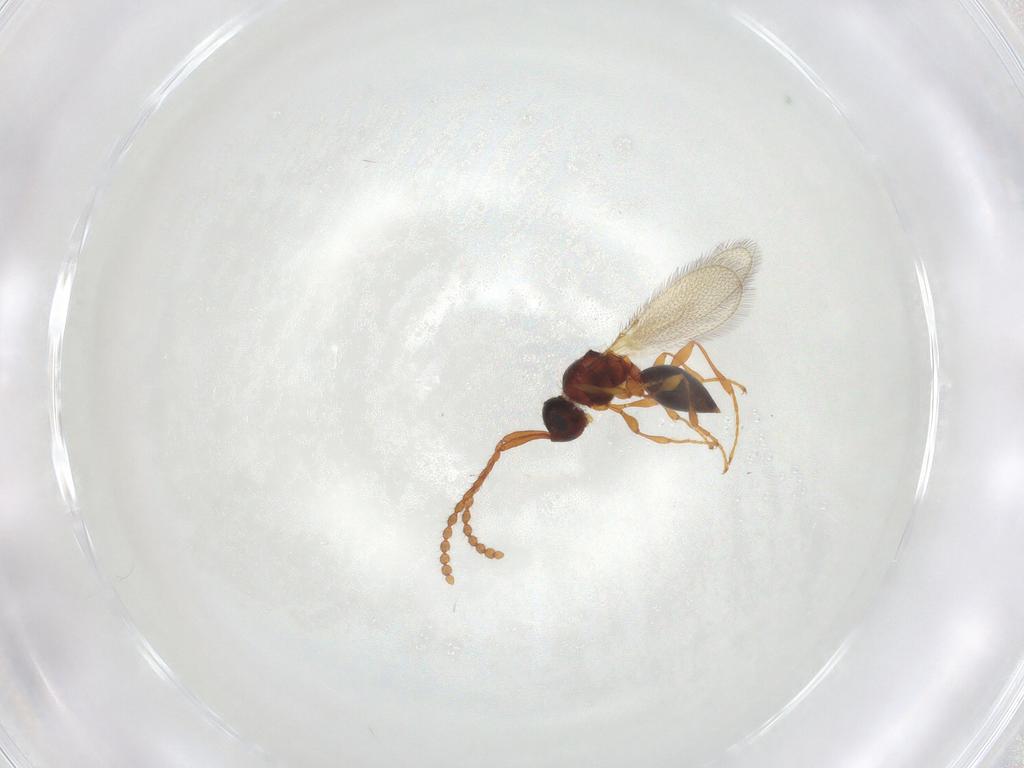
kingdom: Animalia
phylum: Arthropoda
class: Insecta
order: Hymenoptera
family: Diapriidae
